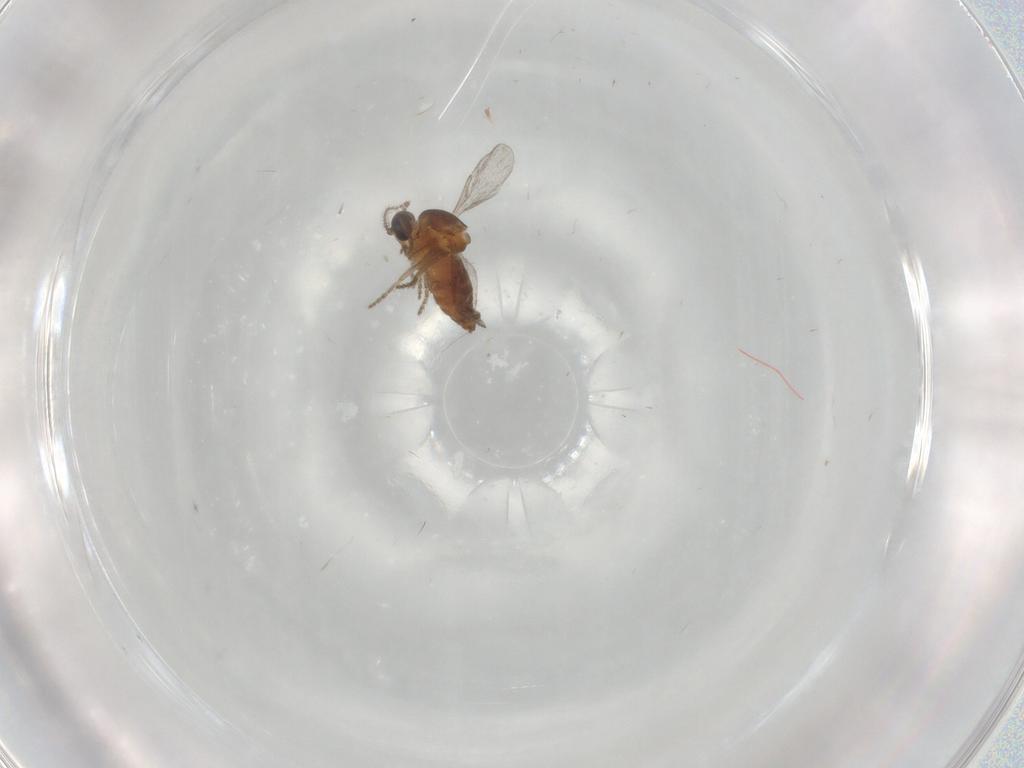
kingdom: Animalia
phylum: Arthropoda
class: Insecta
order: Diptera
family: Ceratopogonidae
